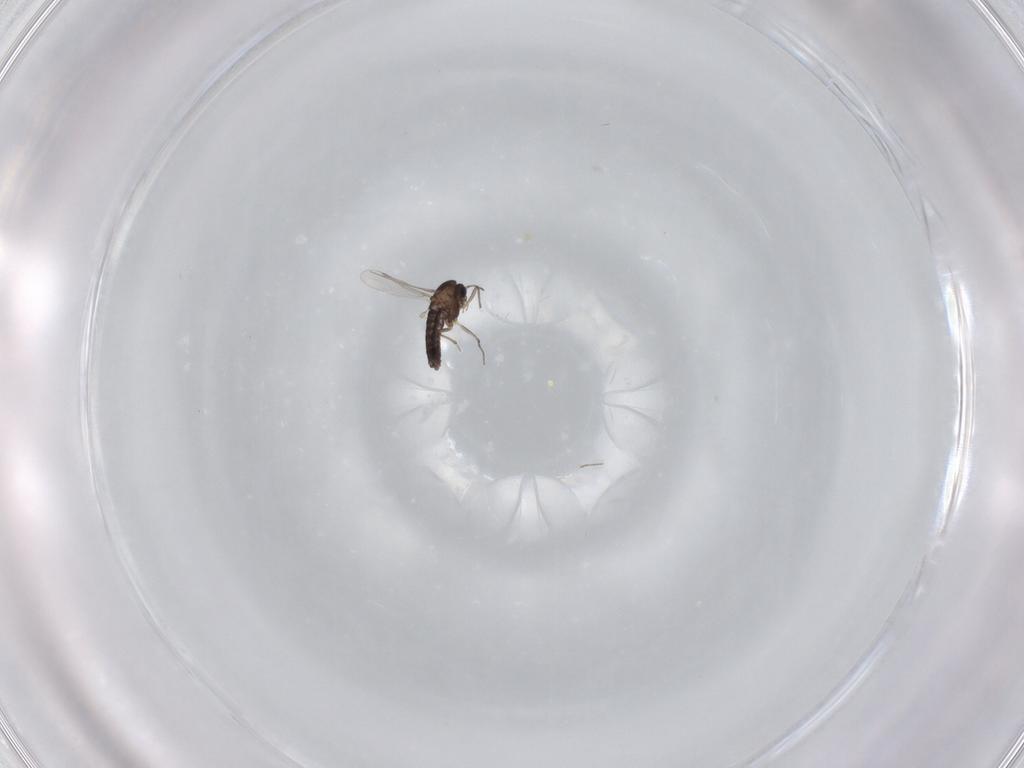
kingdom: Animalia
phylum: Arthropoda
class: Insecta
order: Diptera
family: Chironomidae
